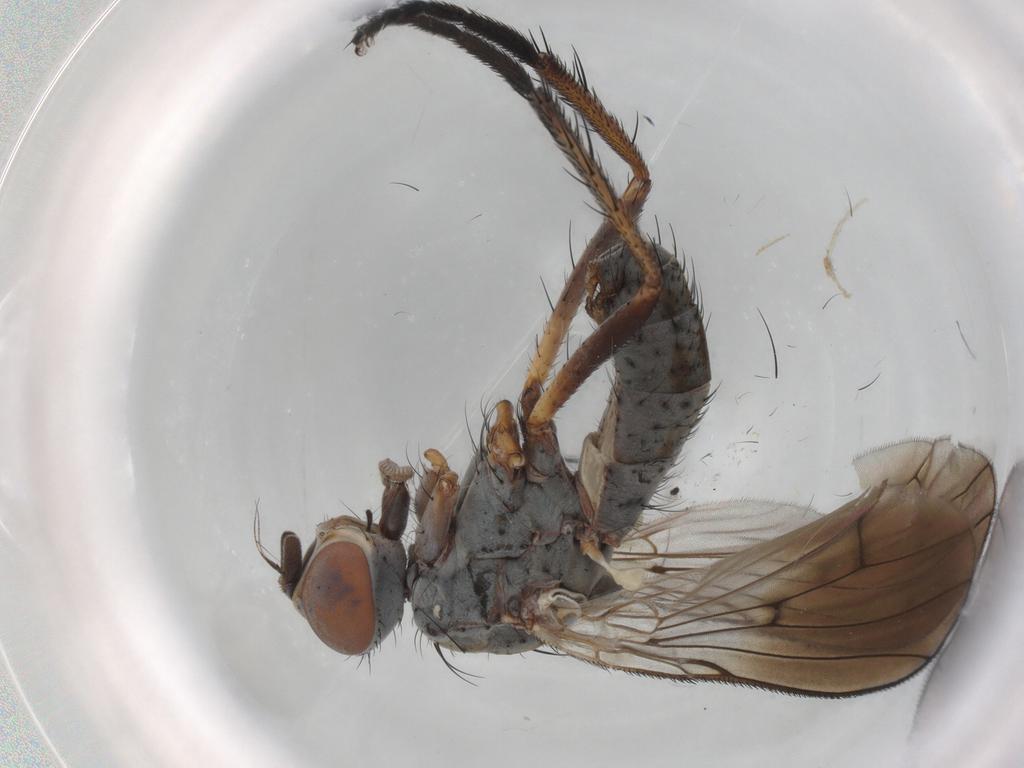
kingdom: Animalia
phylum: Arthropoda
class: Insecta
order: Diptera
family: Anthomyiidae
